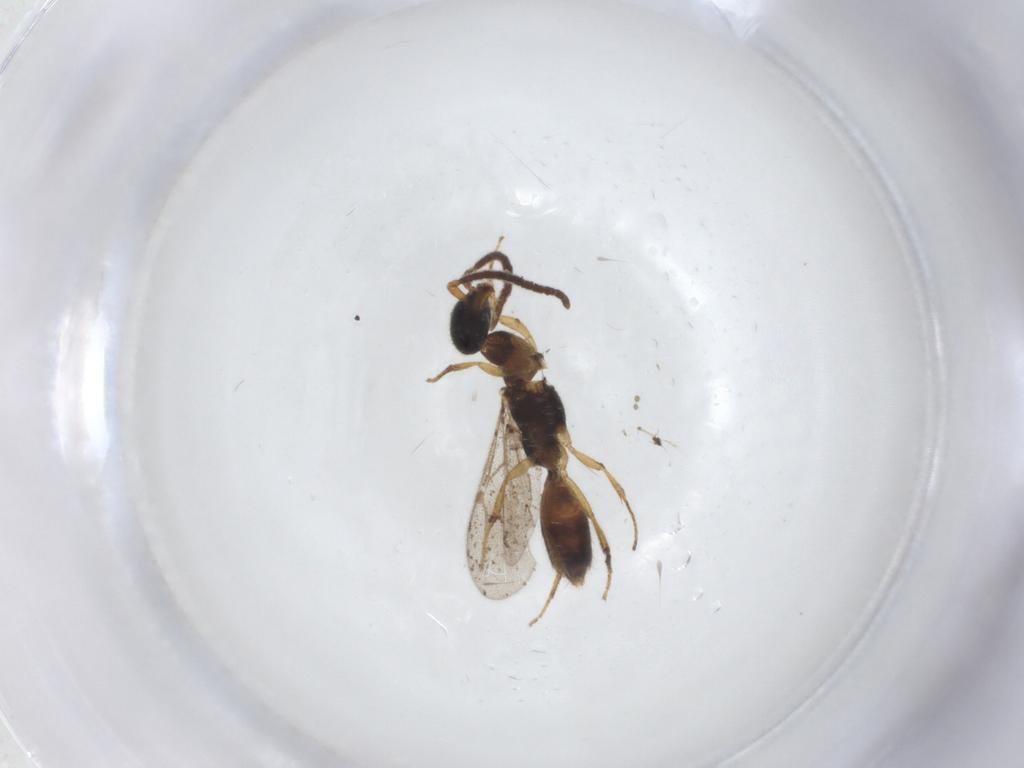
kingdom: Animalia
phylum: Arthropoda
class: Insecta
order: Hymenoptera
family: Bethylidae
